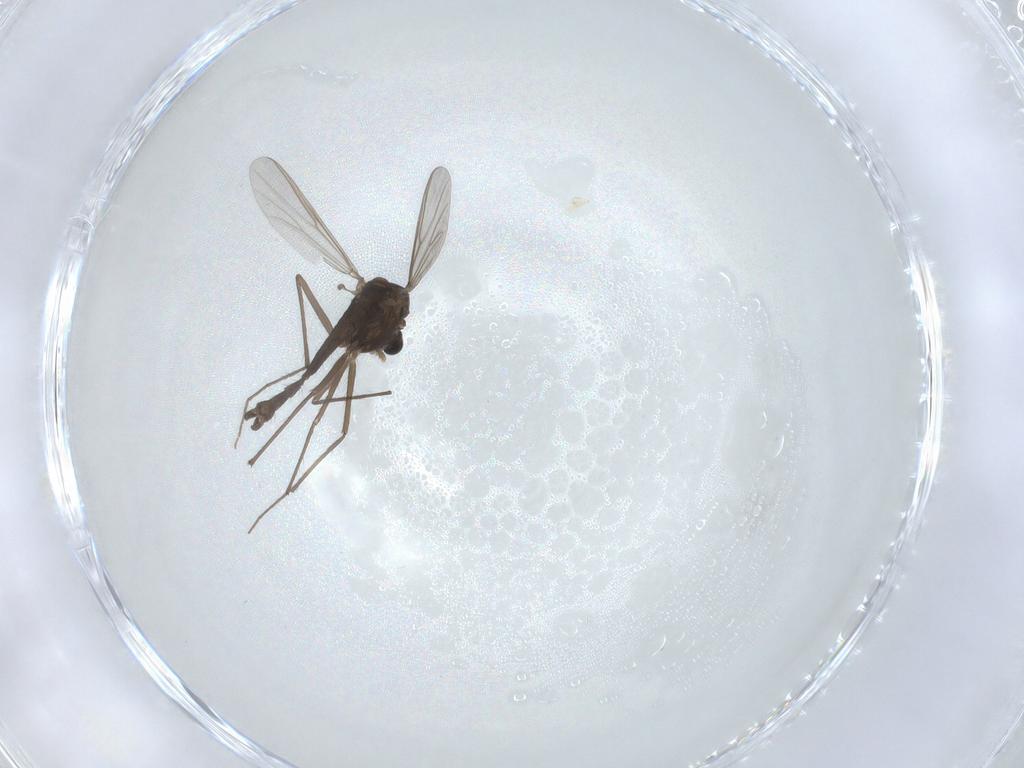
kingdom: Animalia
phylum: Arthropoda
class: Insecta
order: Diptera
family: Chironomidae
